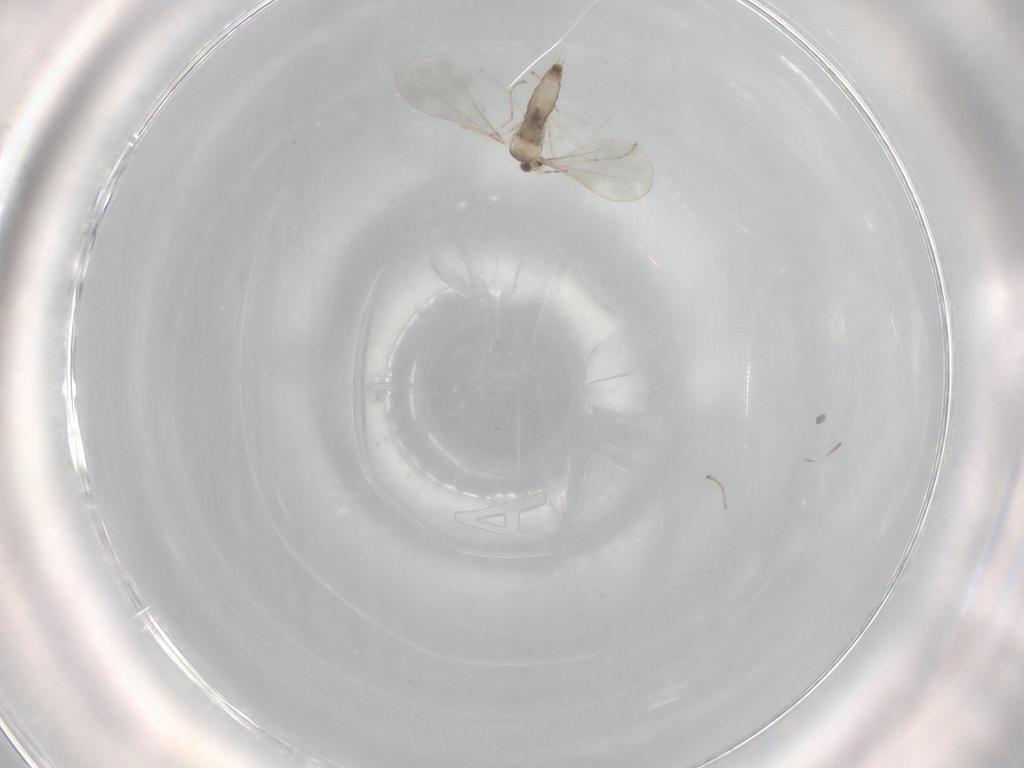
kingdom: Animalia
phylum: Arthropoda
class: Insecta
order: Diptera
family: Cecidomyiidae
